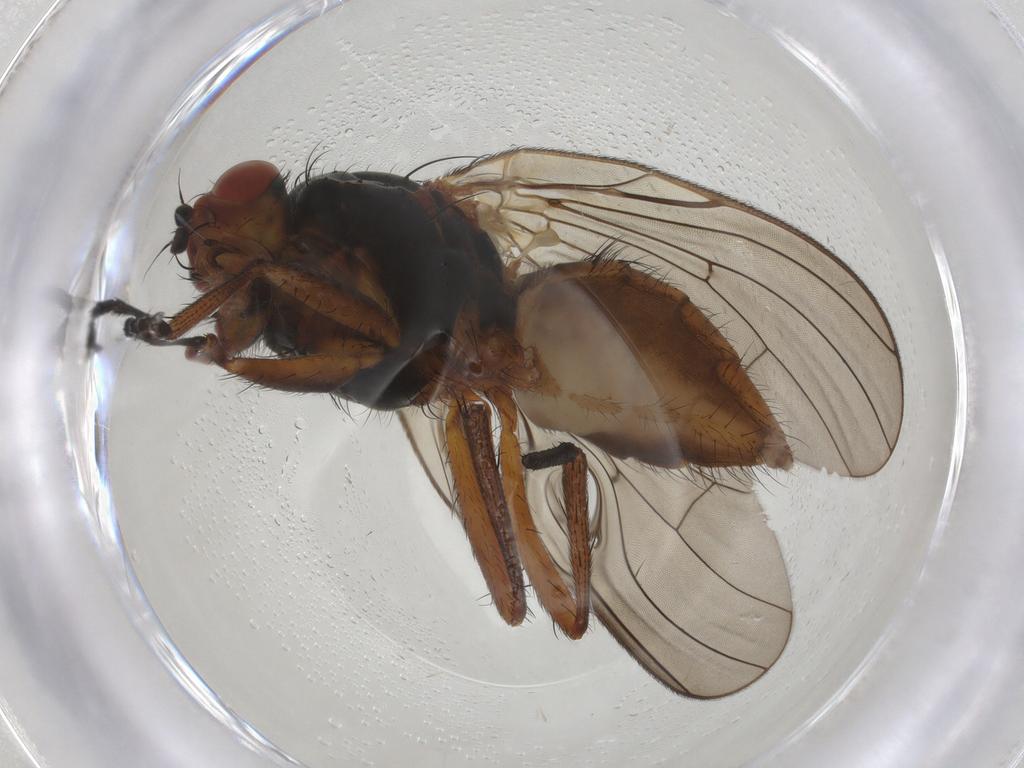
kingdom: Animalia
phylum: Arthropoda
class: Insecta
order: Diptera
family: Anthomyiidae
